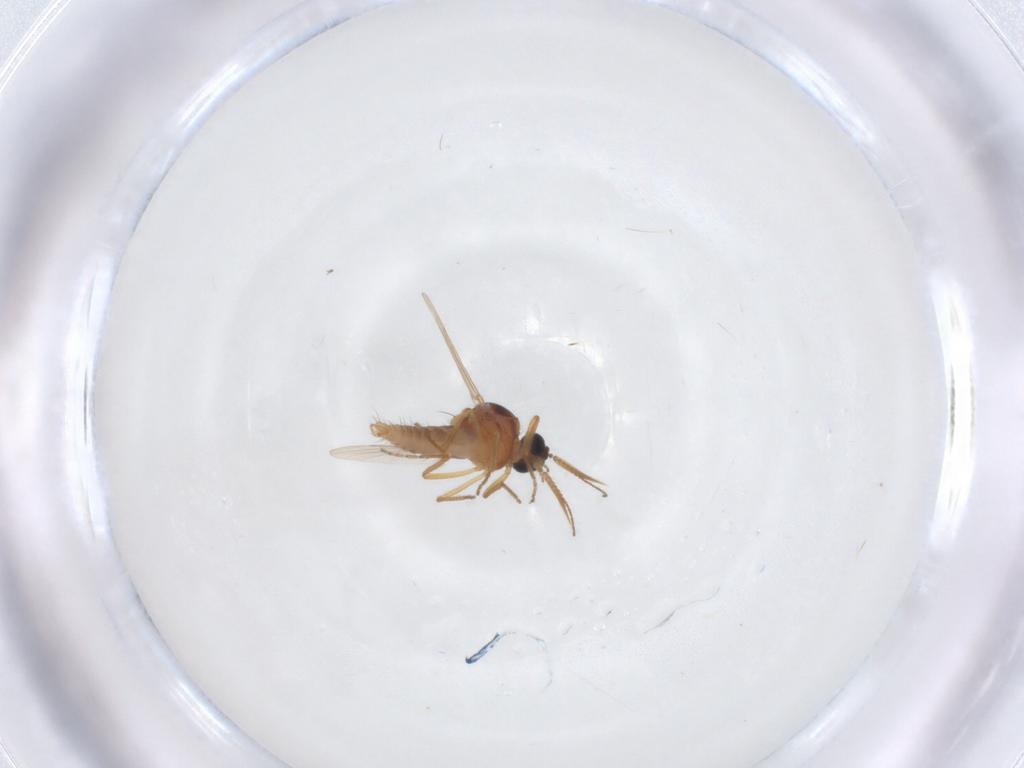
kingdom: Animalia
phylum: Arthropoda
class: Insecta
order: Diptera
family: Ceratopogonidae
